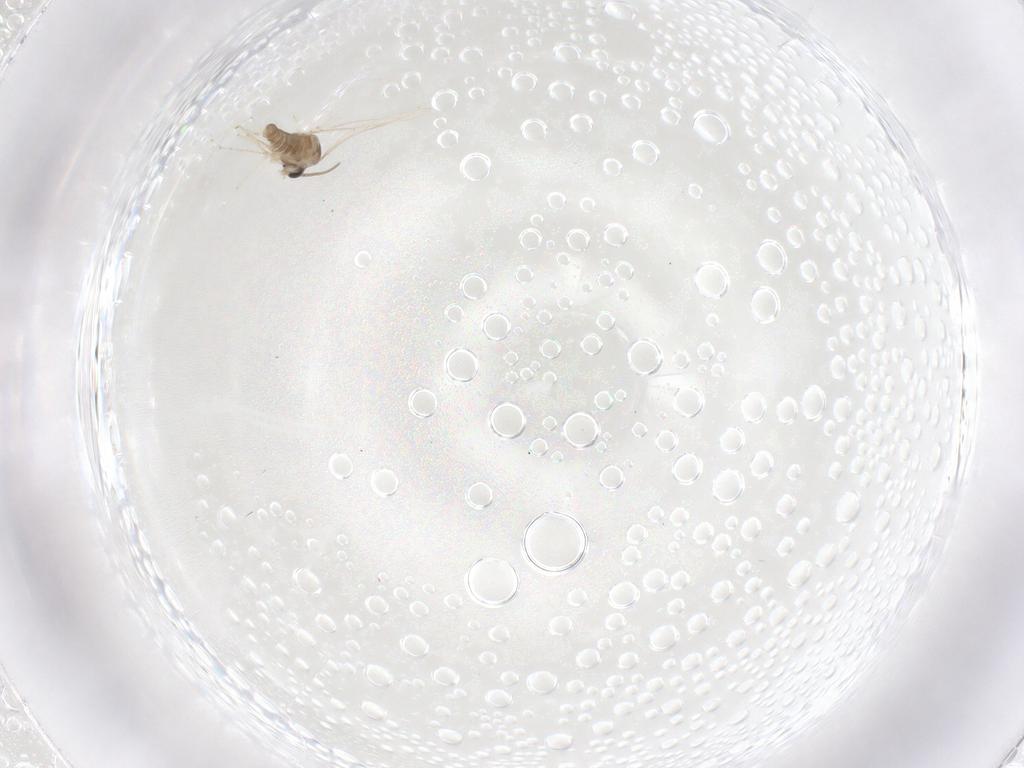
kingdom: Animalia
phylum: Arthropoda
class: Insecta
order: Diptera
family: Cecidomyiidae
